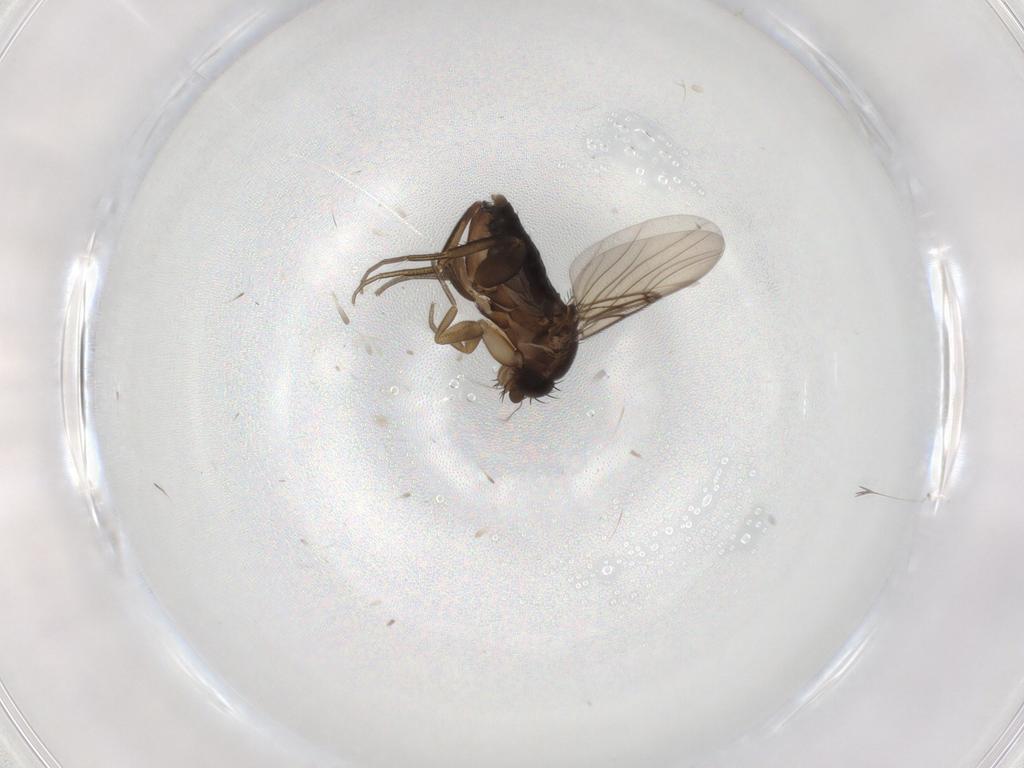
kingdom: Animalia
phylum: Arthropoda
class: Insecta
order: Diptera
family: Phoridae
